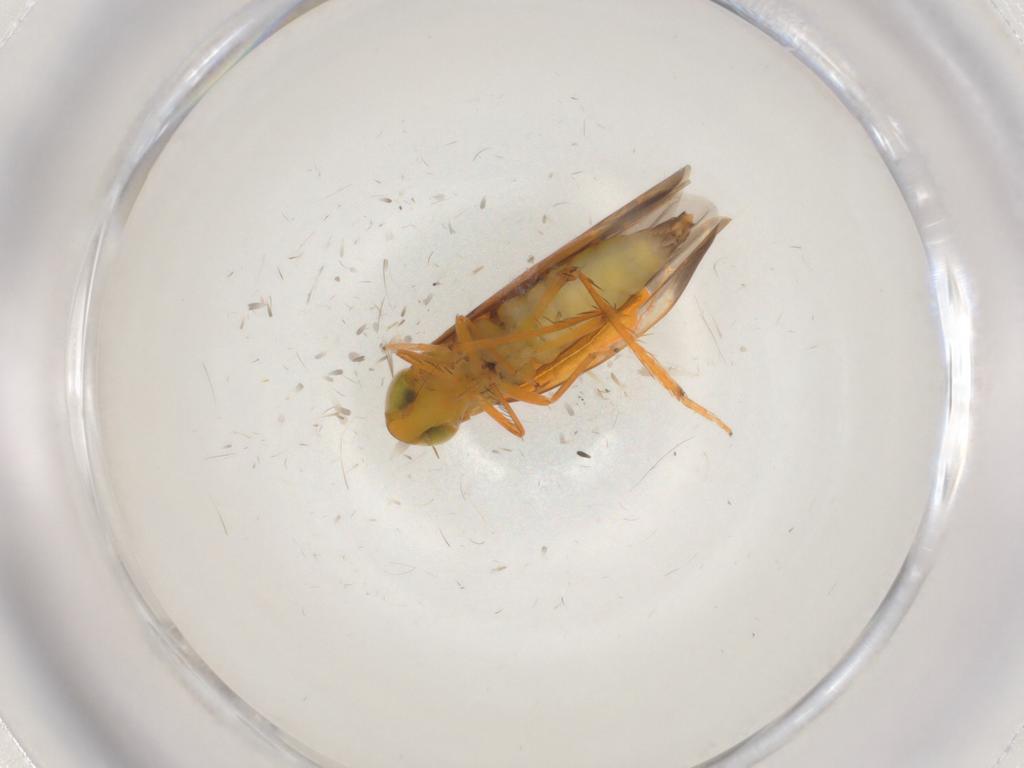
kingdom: Animalia
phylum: Arthropoda
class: Insecta
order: Hemiptera
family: Cicadellidae
